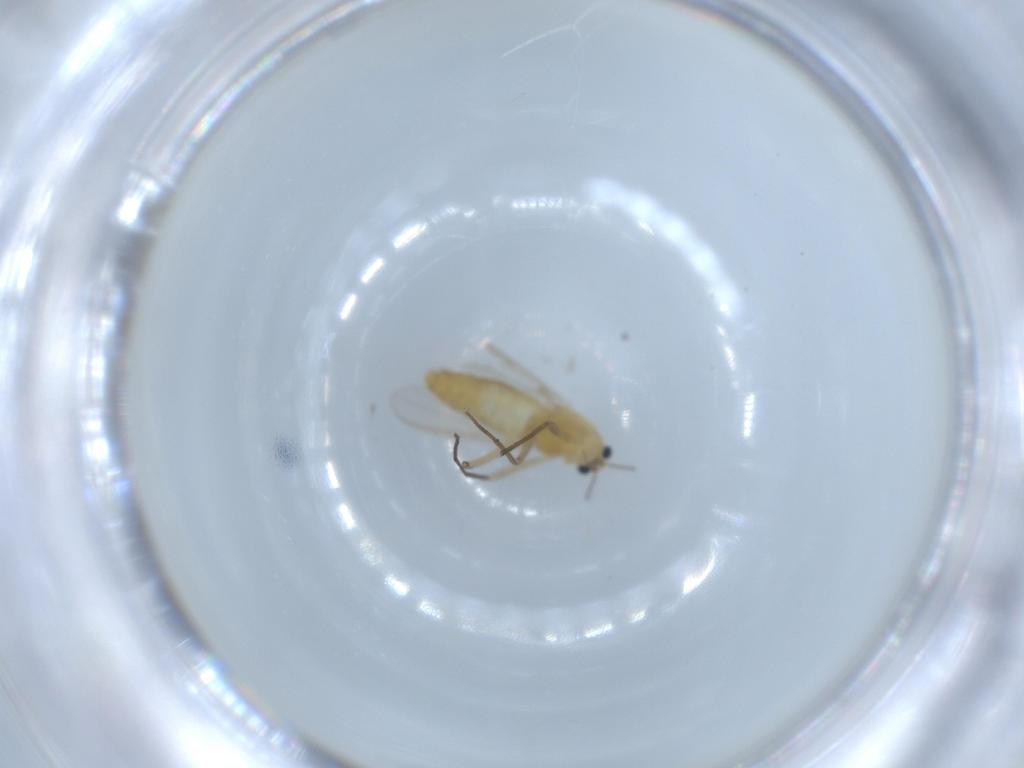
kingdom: Animalia
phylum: Arthropoda
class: Insecta
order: Diptera
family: Chironomidae
